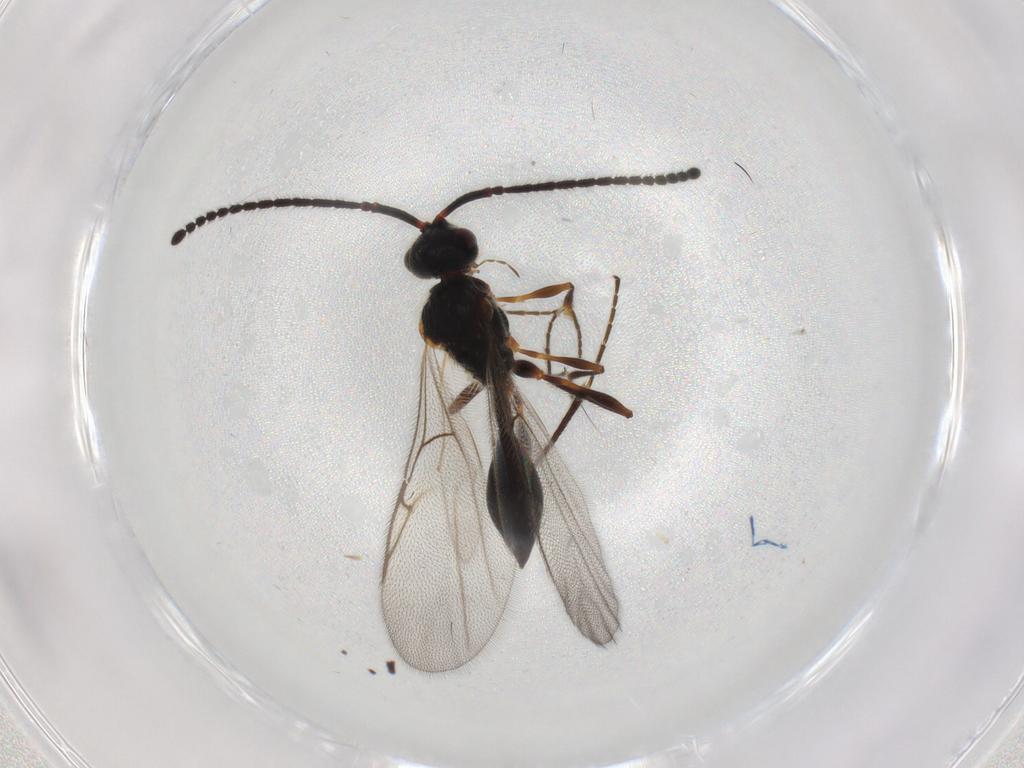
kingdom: Animalia
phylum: Arthropoda
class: Insecta
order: Hymenoptera
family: Diapriidae
